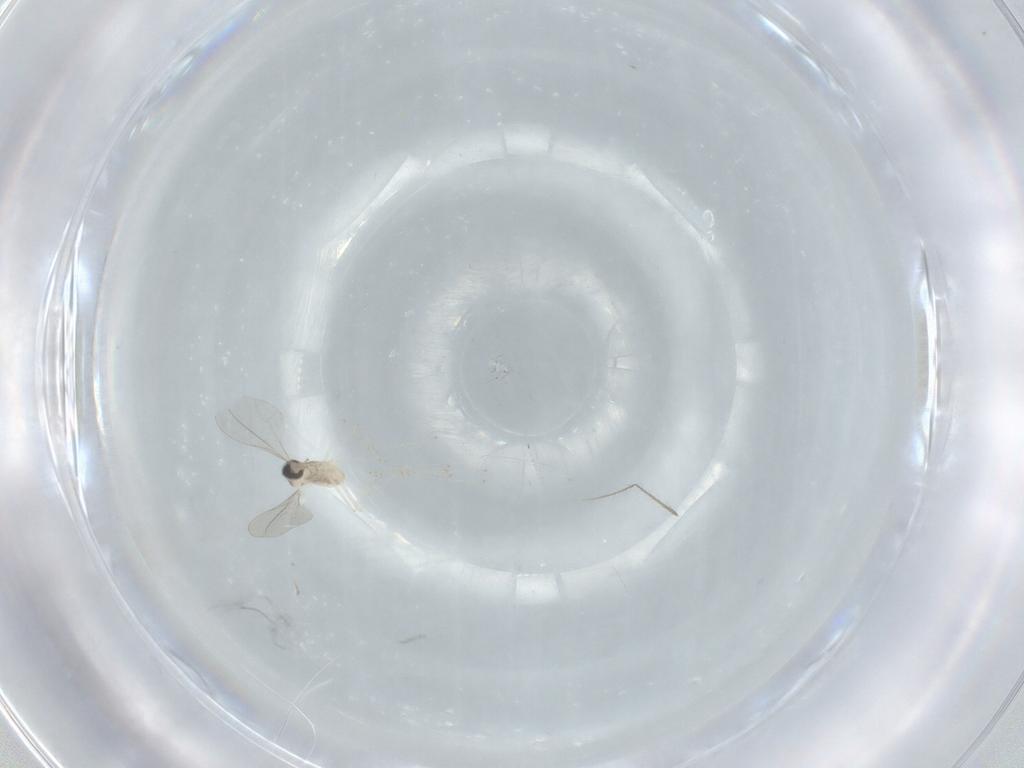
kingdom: Animalia
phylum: Arthropoda
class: Insecta
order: Diptera
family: Cecidomyiidae
